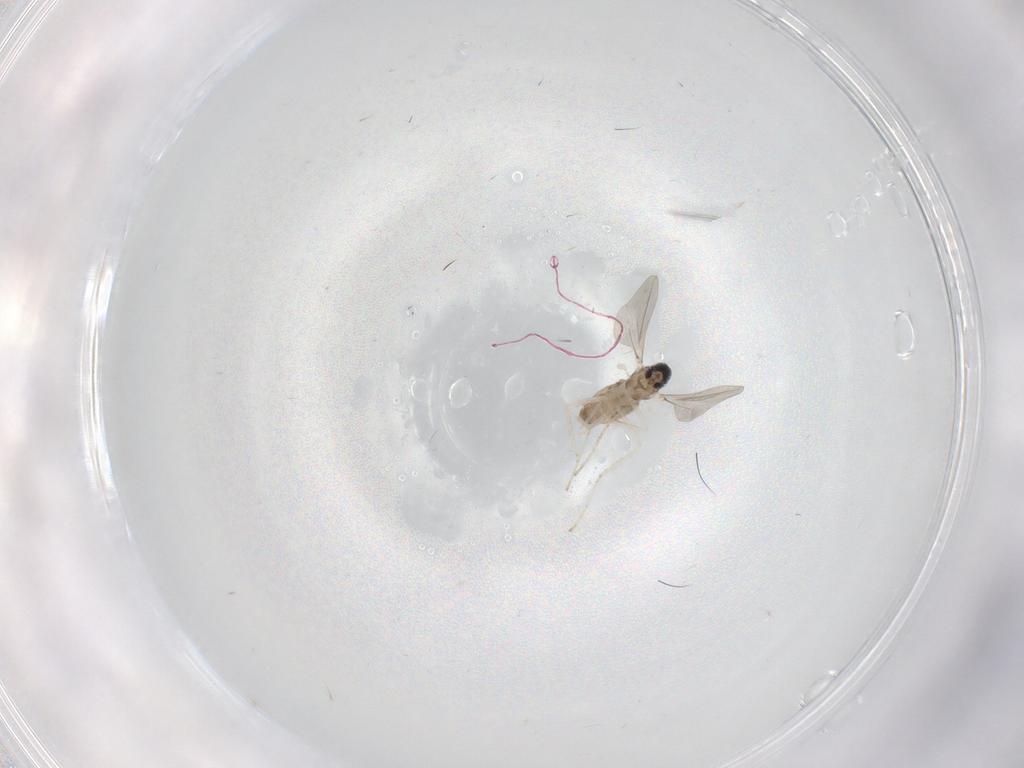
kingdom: Animalia
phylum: Arthropoda
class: Insecta
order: Diptera
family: Cecidomyiidae
